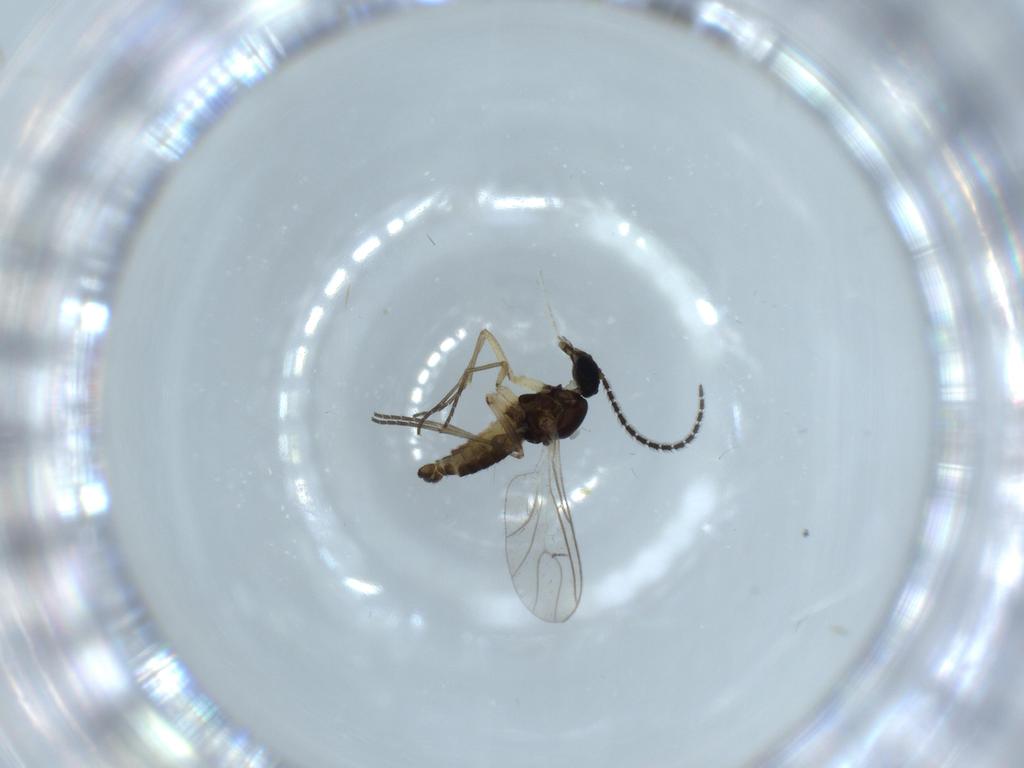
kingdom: Animalia
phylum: Arthropoda
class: Insecta
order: Diptera
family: Sciaridae
